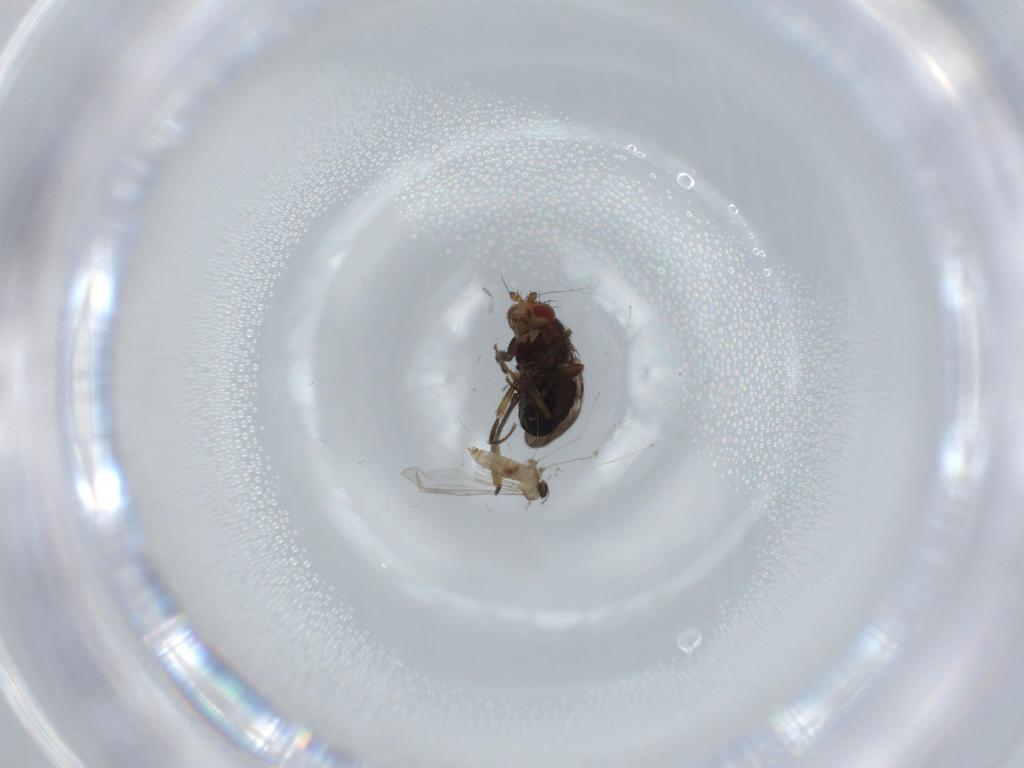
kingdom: Animalia
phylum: Arthropoda
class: Insecta
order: Diptera
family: Cecidomyiidae
